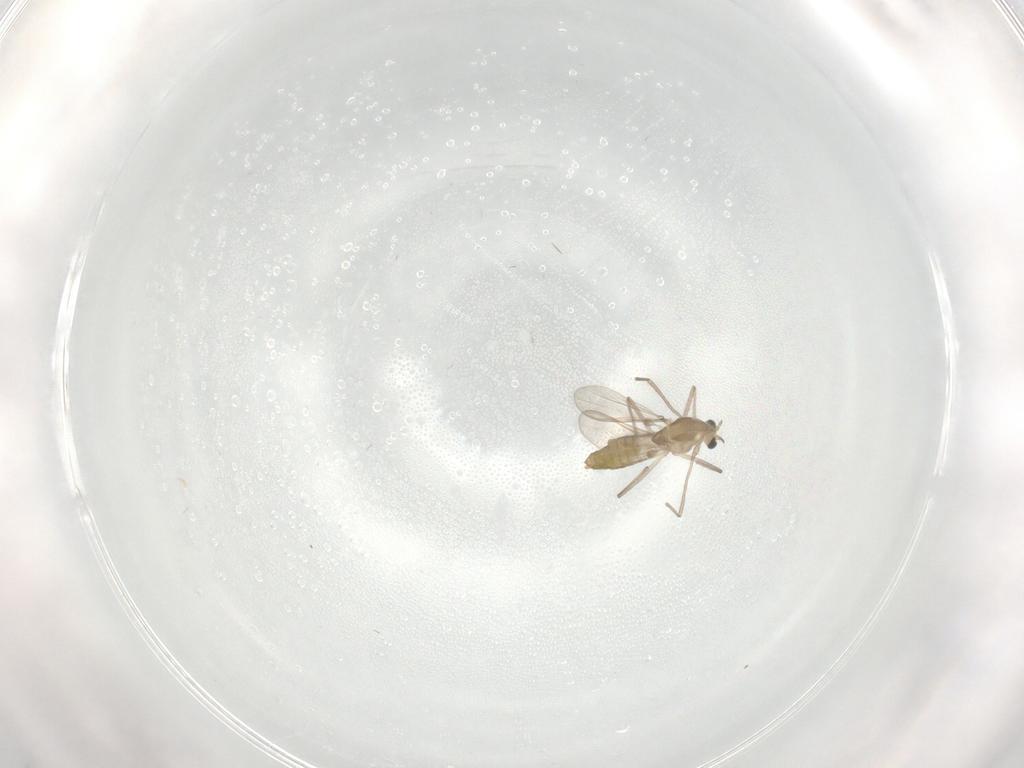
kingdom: Animalia
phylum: Arthropoda
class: Insecta
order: Diptera
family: Chironomidae
